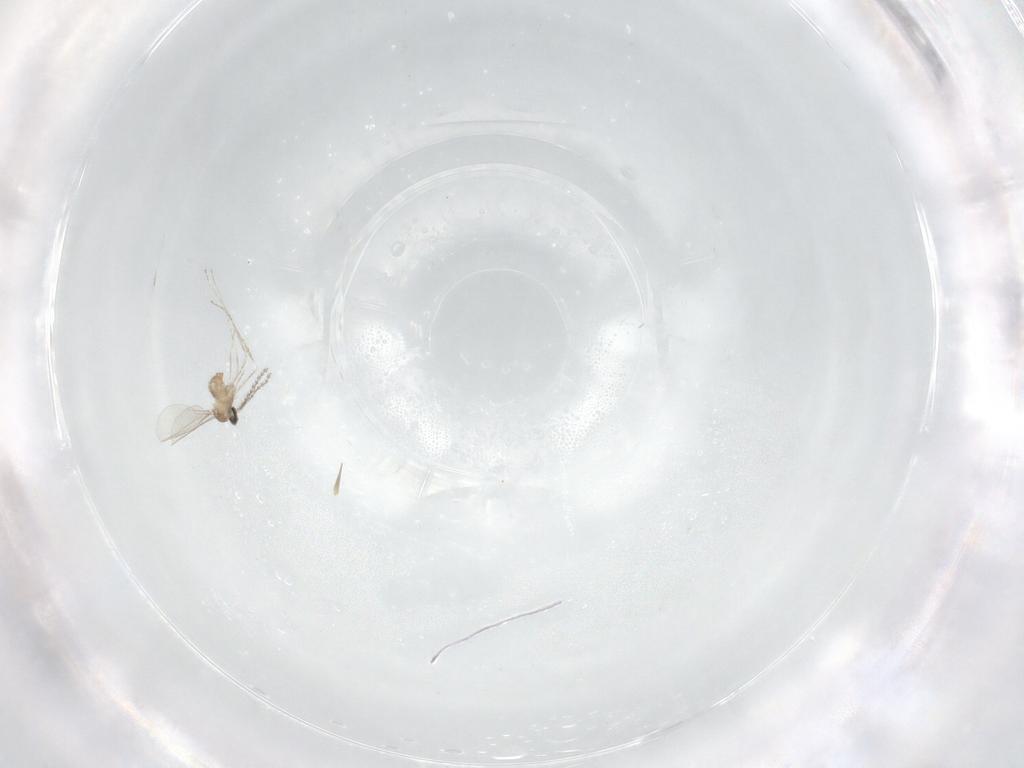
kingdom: Animalia
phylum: Arthropoda
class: Insecta
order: Diptera
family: Cecidomyiidae
